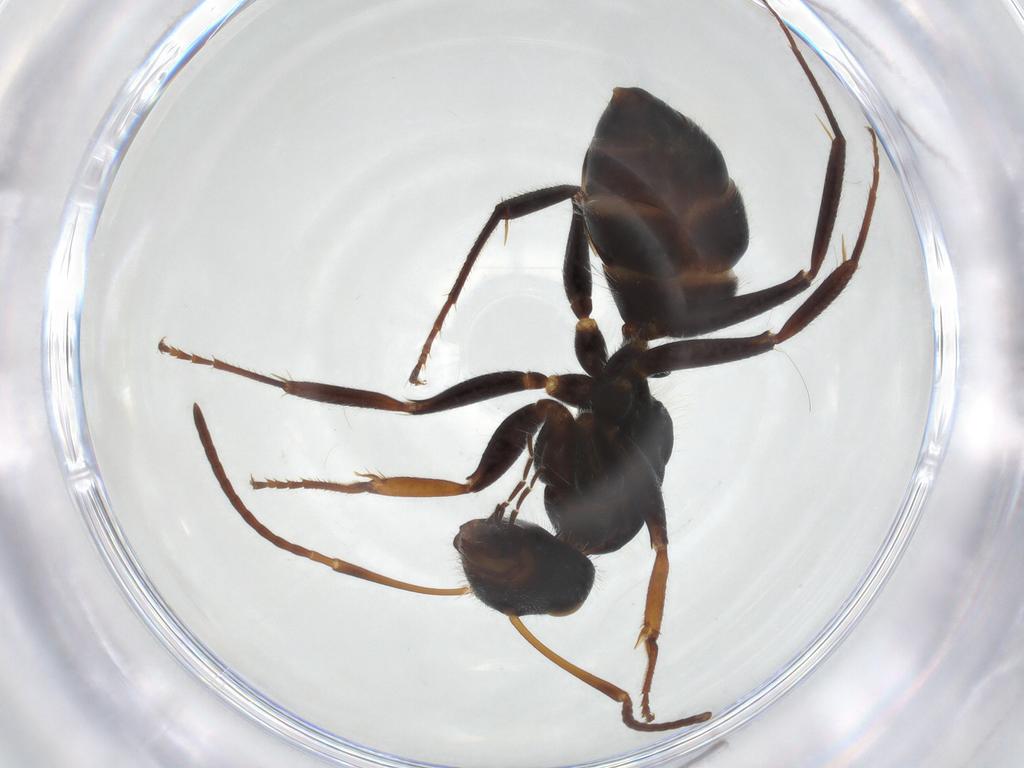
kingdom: Animalia
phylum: Arthropoda
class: Insecta
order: Hymenoptera
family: Formicidae
